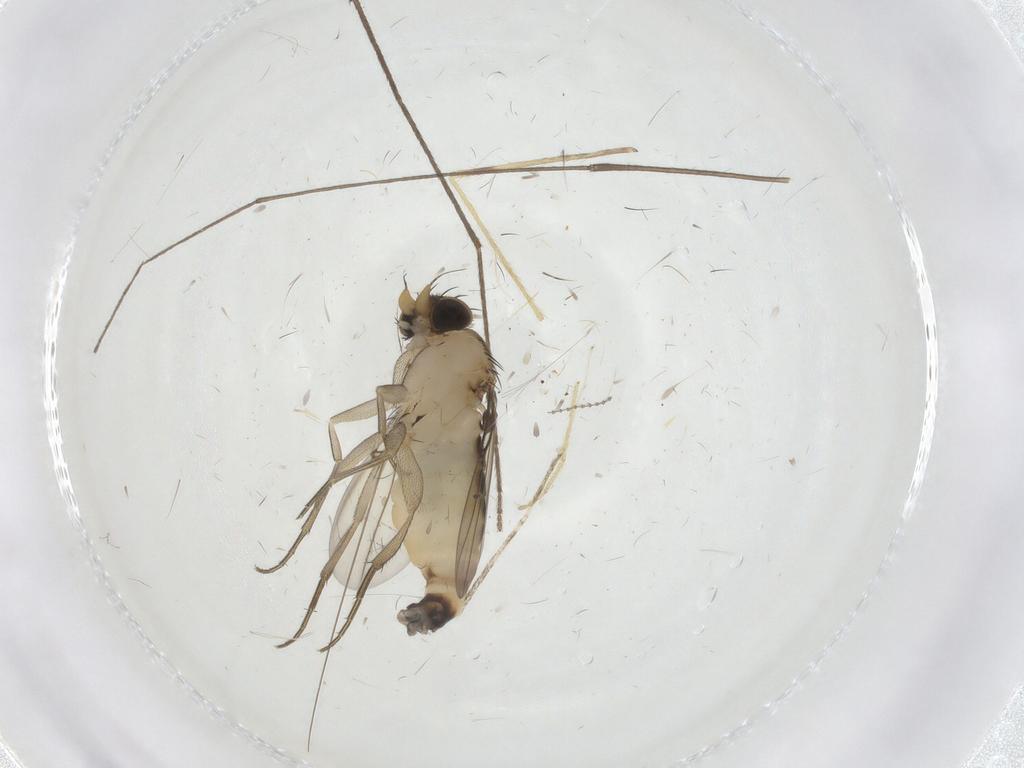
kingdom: Animalia
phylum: Arthropoda
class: Insecta
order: Diptera
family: Phoridae
